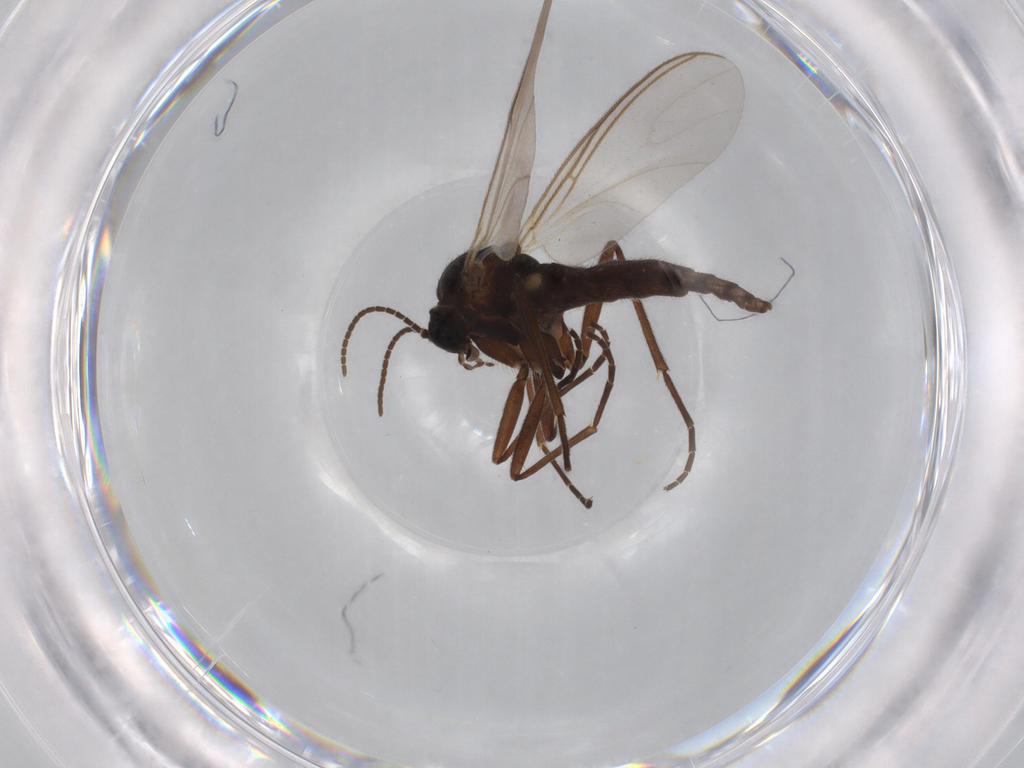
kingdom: Animalia
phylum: Arthropoda
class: Insecta
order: Diptera
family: Sciaridae
